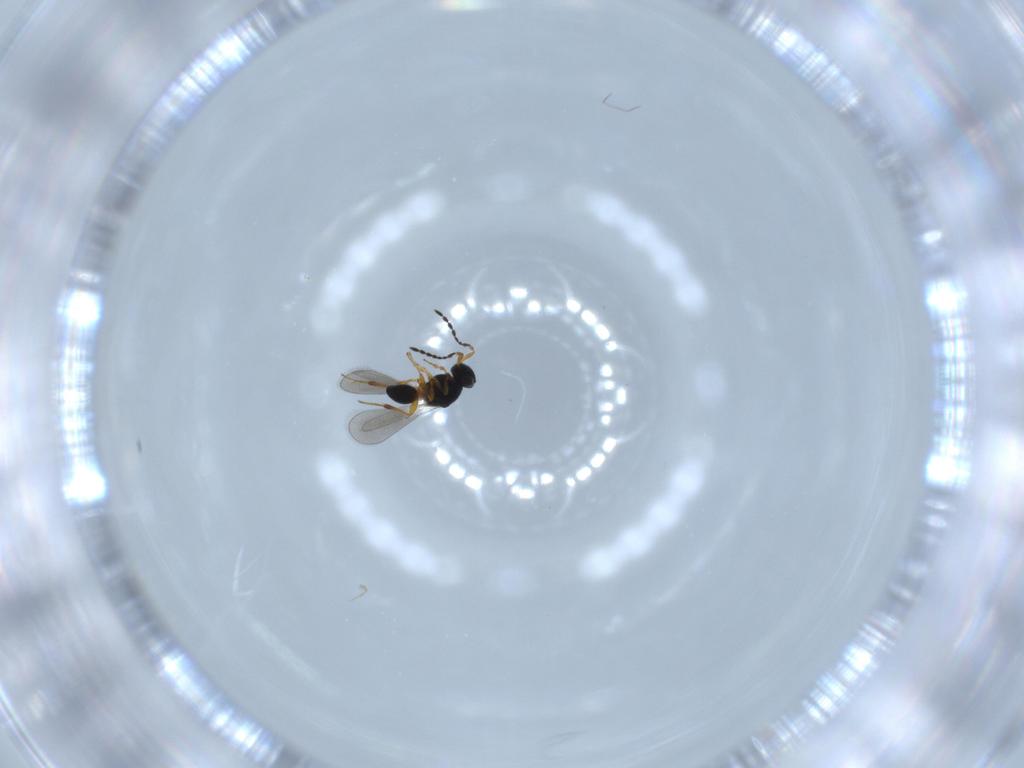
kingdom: Animalia
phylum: Arthropoda
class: Insecta
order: Hymenoptera
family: Platygastridae
